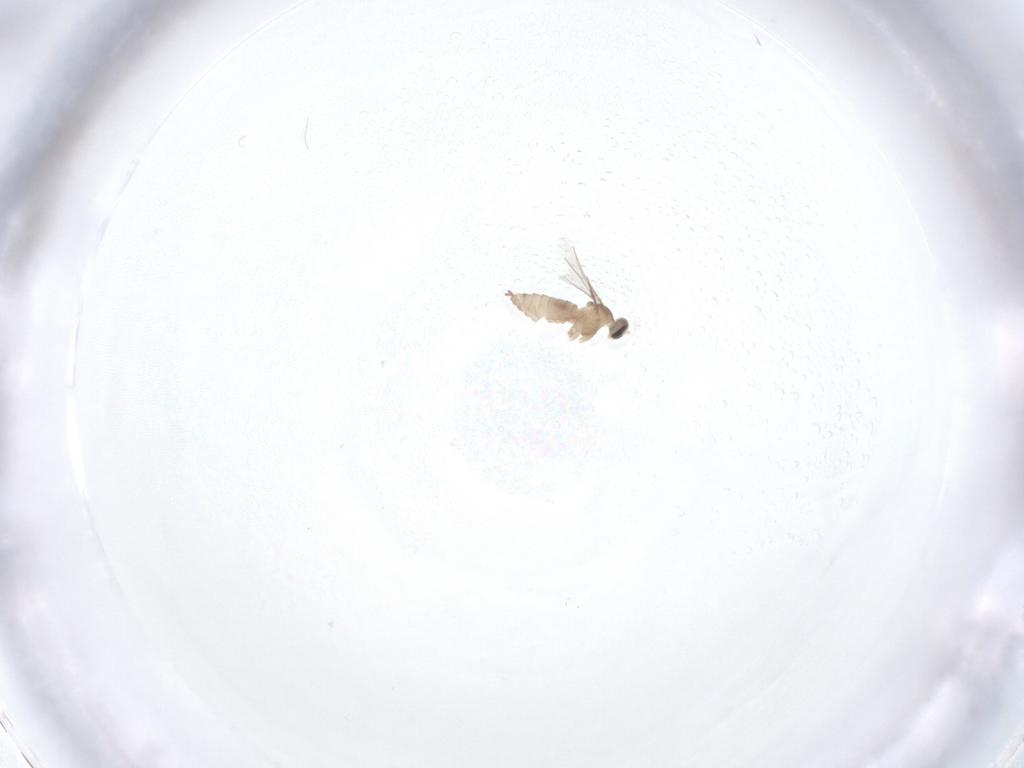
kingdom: Animalia
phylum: Arthropoda
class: Insecta
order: Diptera
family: Cecidomyiidae
